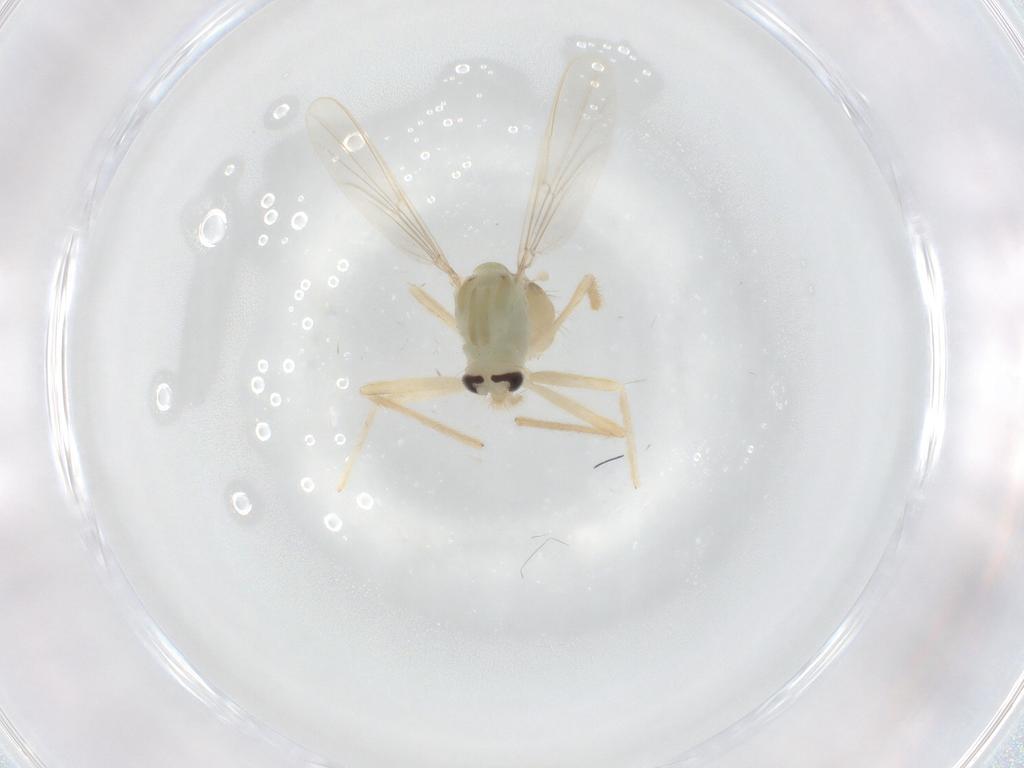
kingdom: Animalia
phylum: Arthropoda
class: Insecta
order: Diptera
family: Chironomidae
